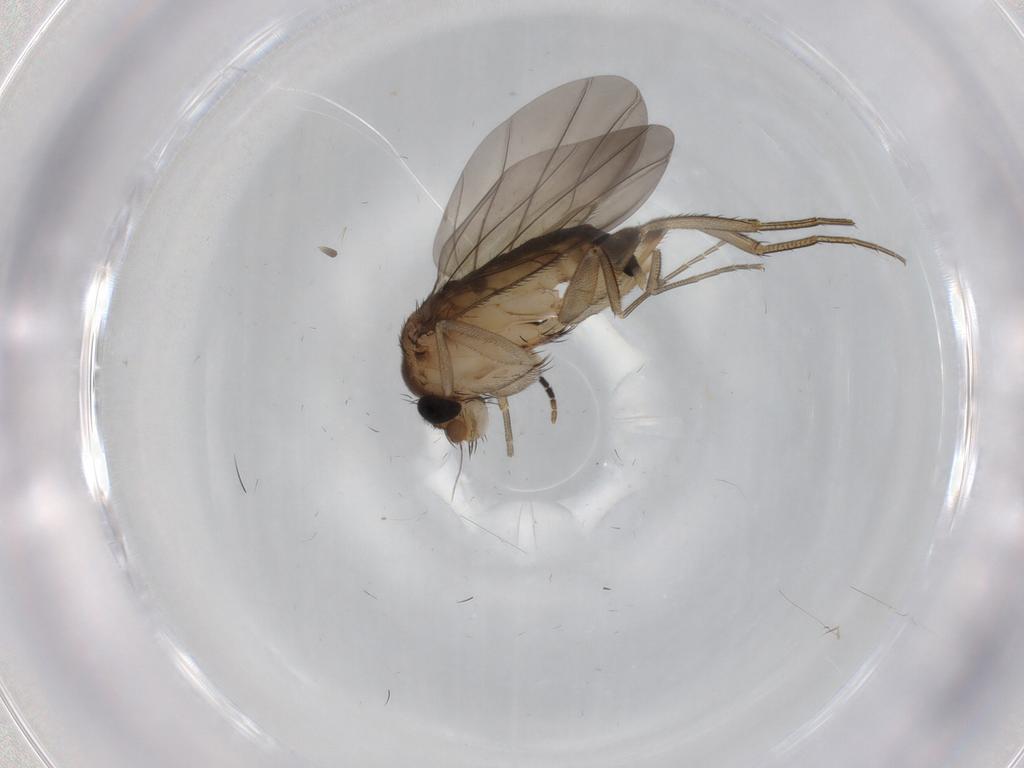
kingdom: Animalia
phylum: Arthropoda
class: Insecta
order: Diptera
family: Phoridae
